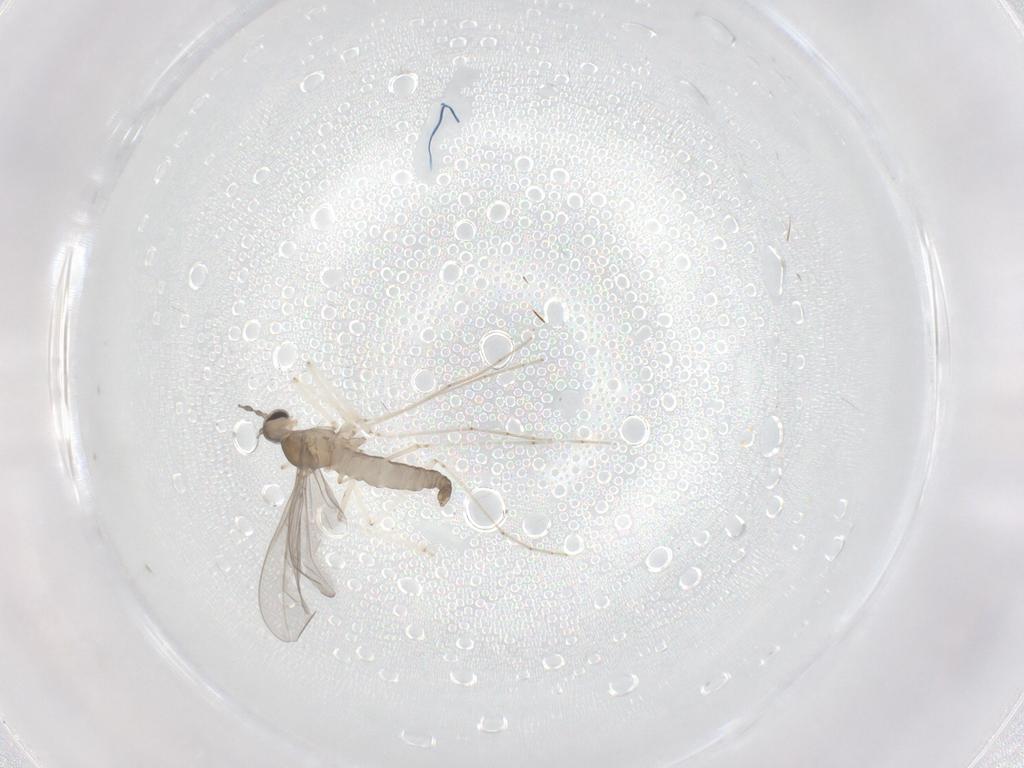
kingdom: Animalia
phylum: Arthropoda
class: Insecta
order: Diptera
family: Cecidomyiidae
